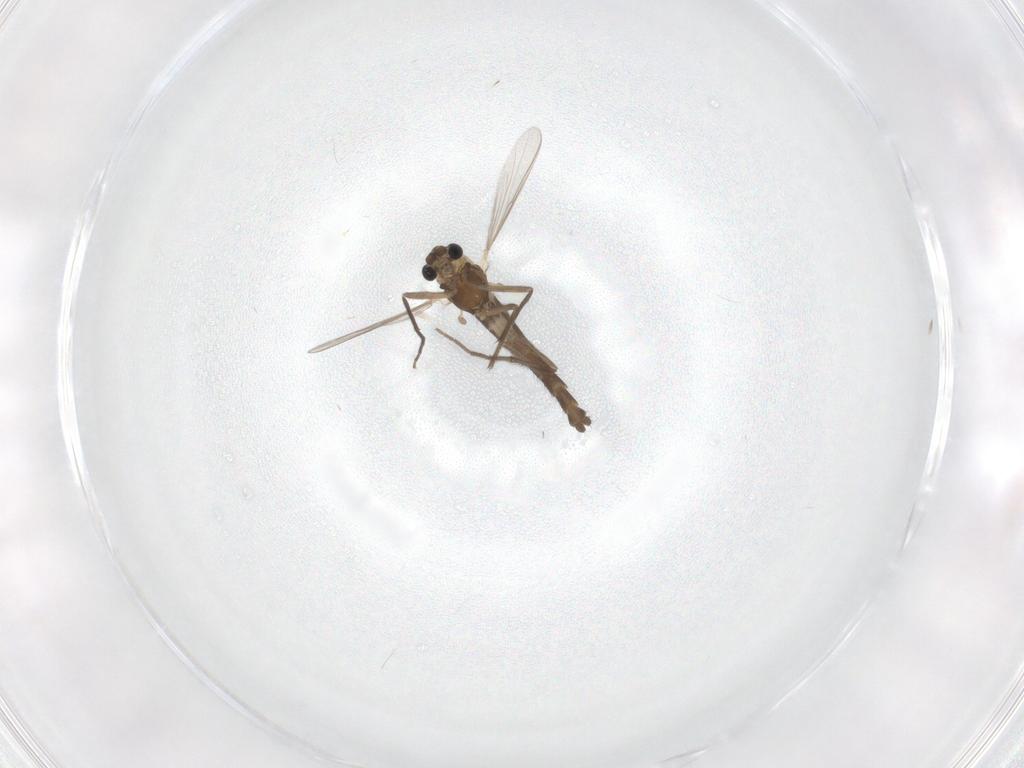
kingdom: Animalia
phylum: Arthropoda
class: Insecta
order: Diptera
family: Chironomidae
